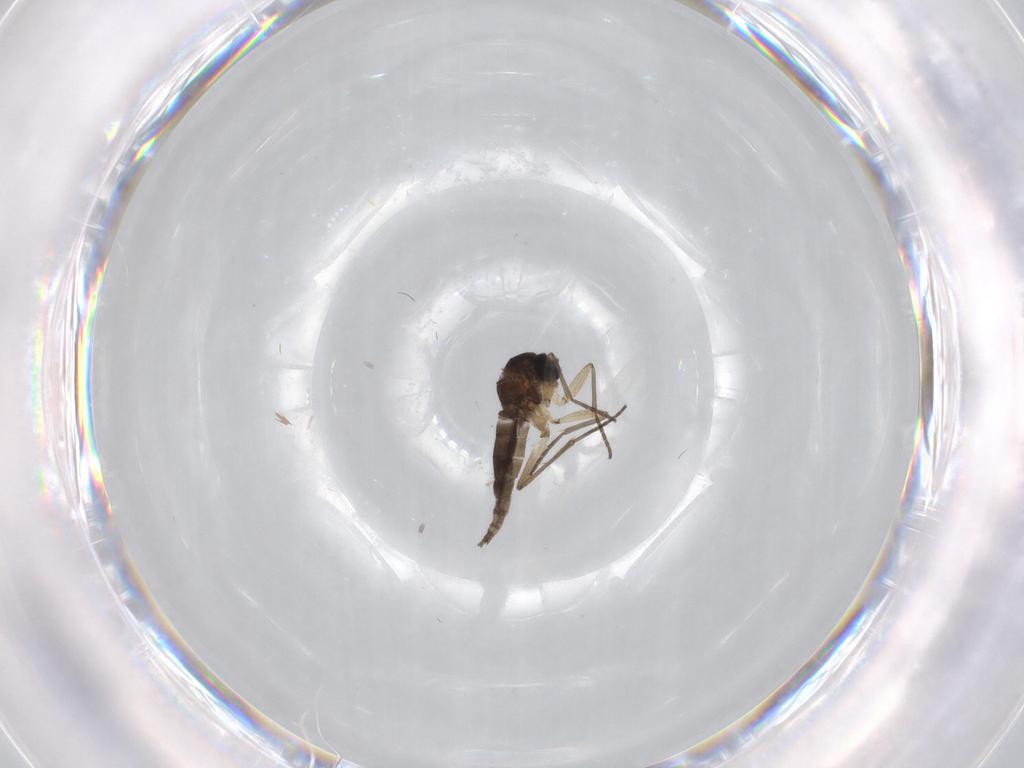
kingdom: Animalia
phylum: Arthropoda
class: Insecta
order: Diptera
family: Sciaridae
